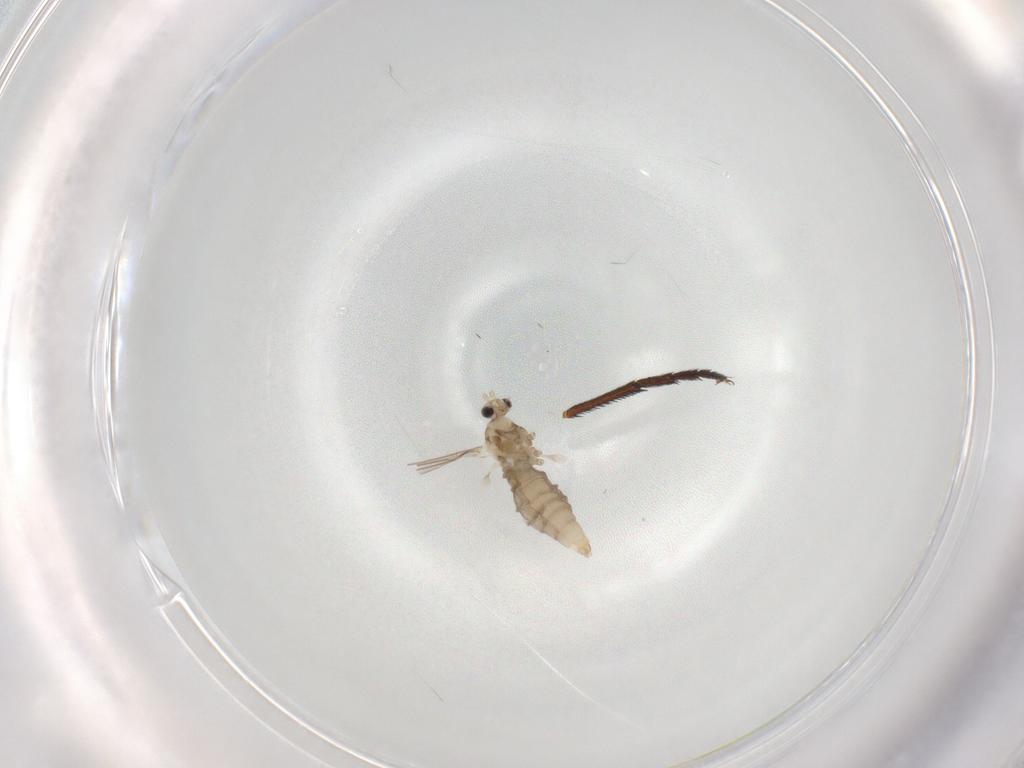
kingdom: Animalia
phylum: Arthropoda
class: Insecta
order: Diptera
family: Anthomyiidae
